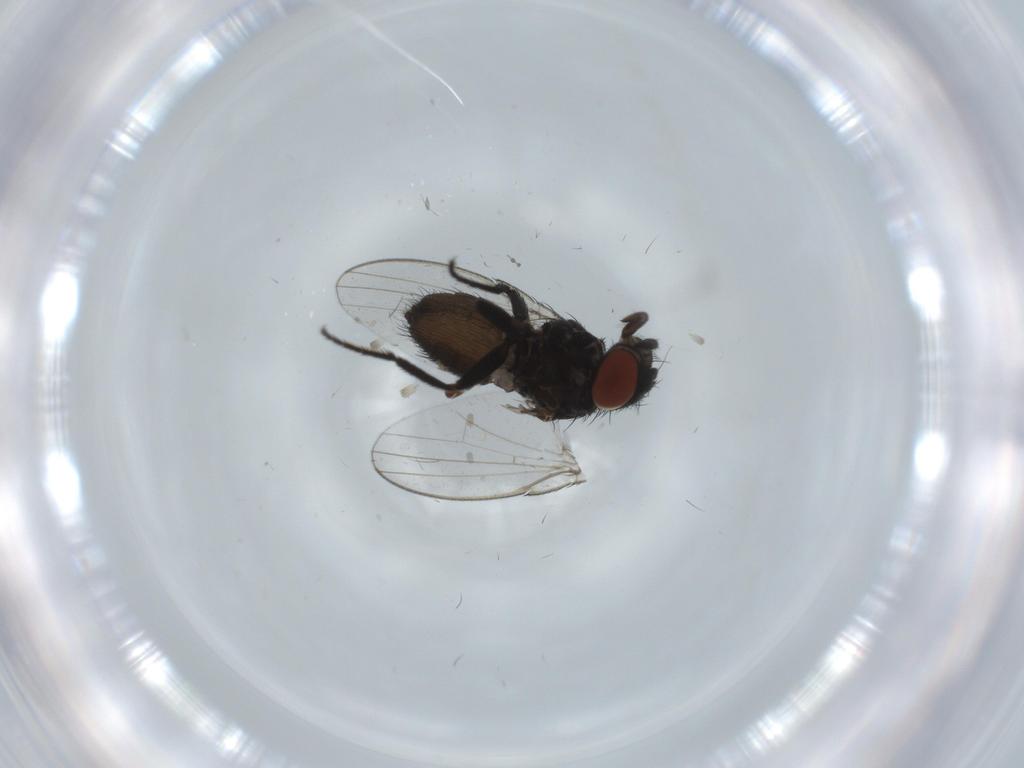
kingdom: Animalia
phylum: Arthropoda
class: Insecta
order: Diptera
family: Milichiidae
